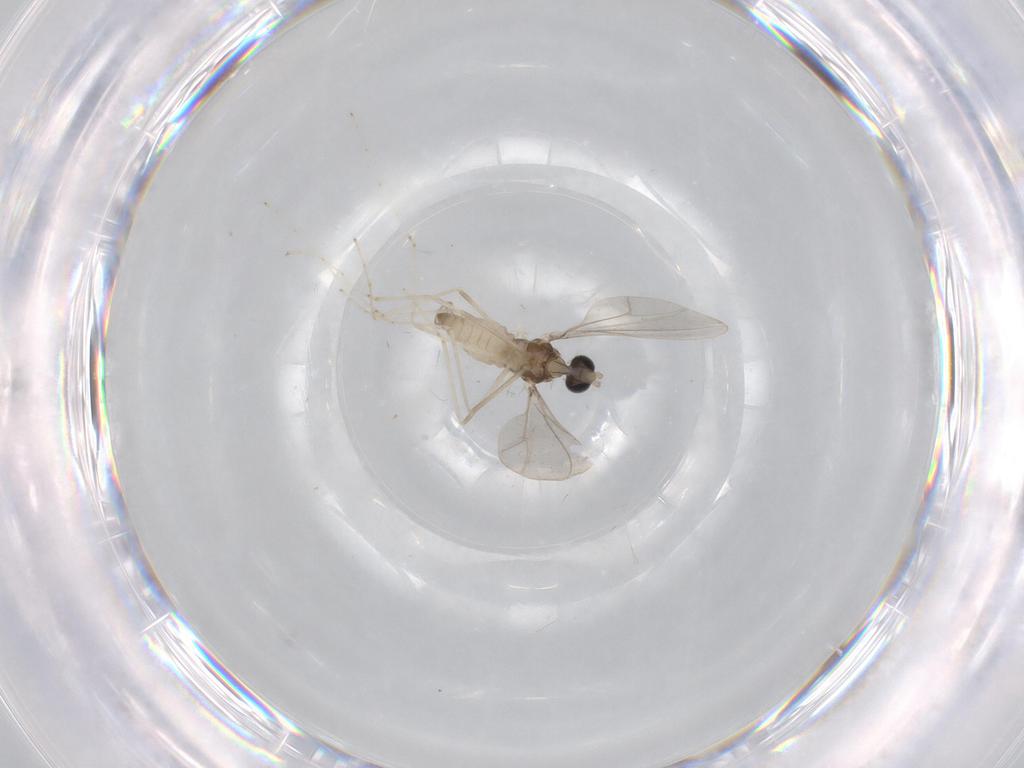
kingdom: Animalia
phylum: Arthropoda
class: Insecta
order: Diptera
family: Cecidomyiidae
